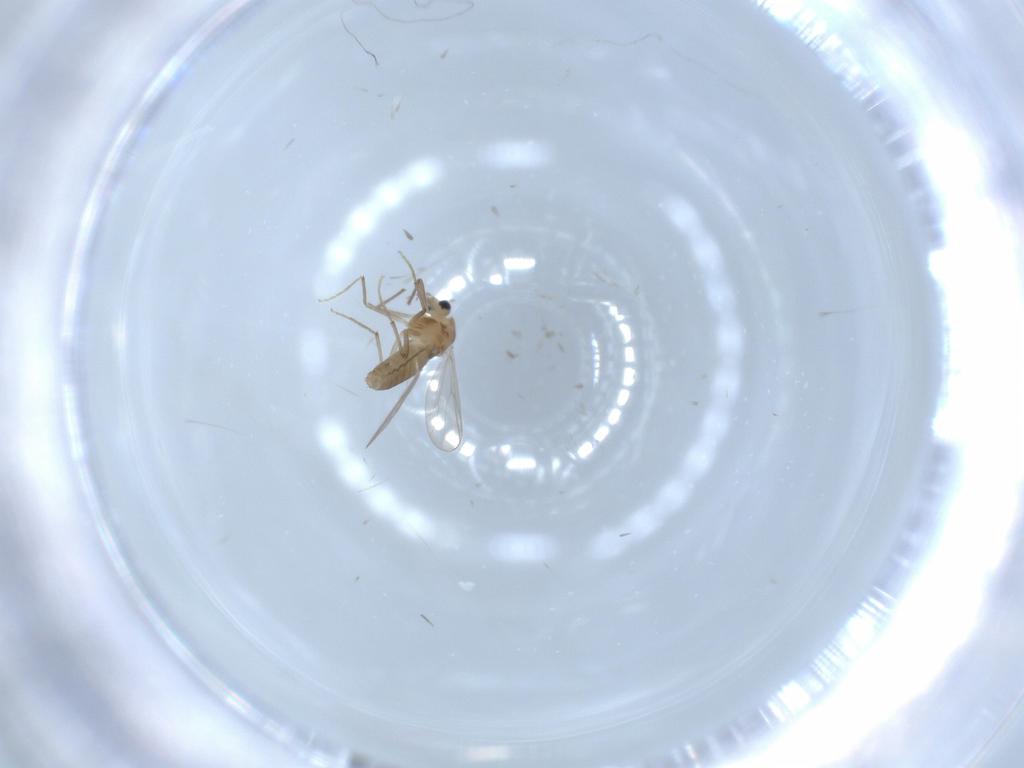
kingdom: Animalia
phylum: Arthropoda
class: Insecta
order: Diptera
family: Chironomidae
